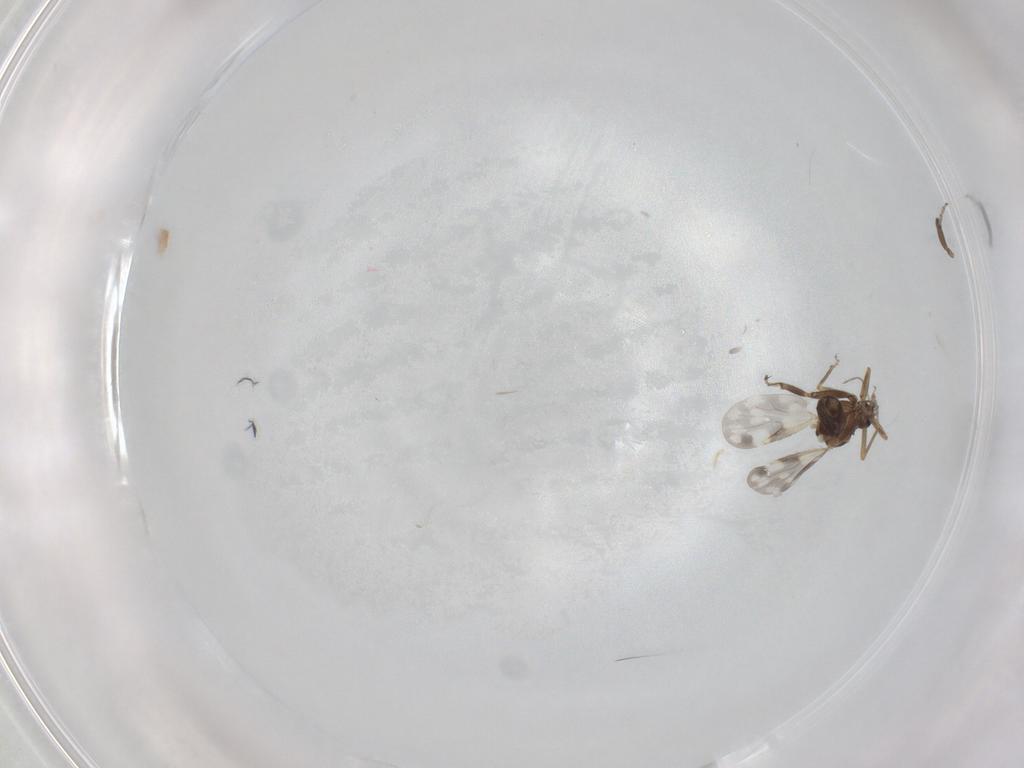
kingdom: Animalia
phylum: Arthropoda
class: Insecta
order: Diptera
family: Ceratopogonidae
